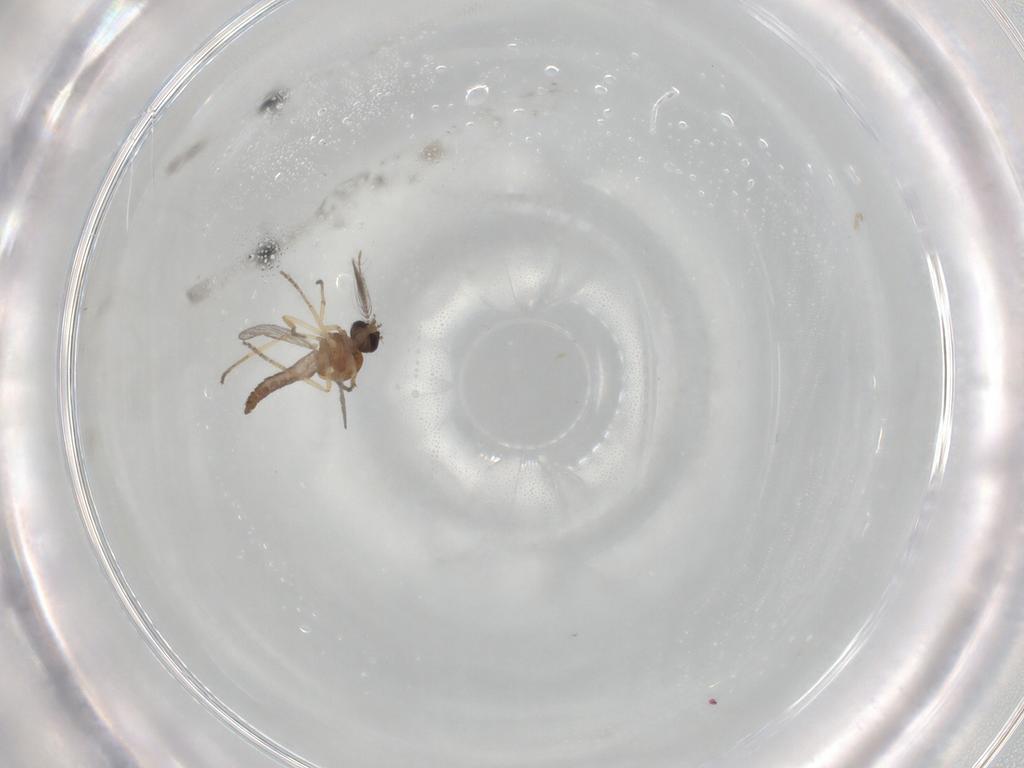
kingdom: Animalia
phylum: Arthropoda
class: Insecta
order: Diptera
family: Ceratopogonidae
